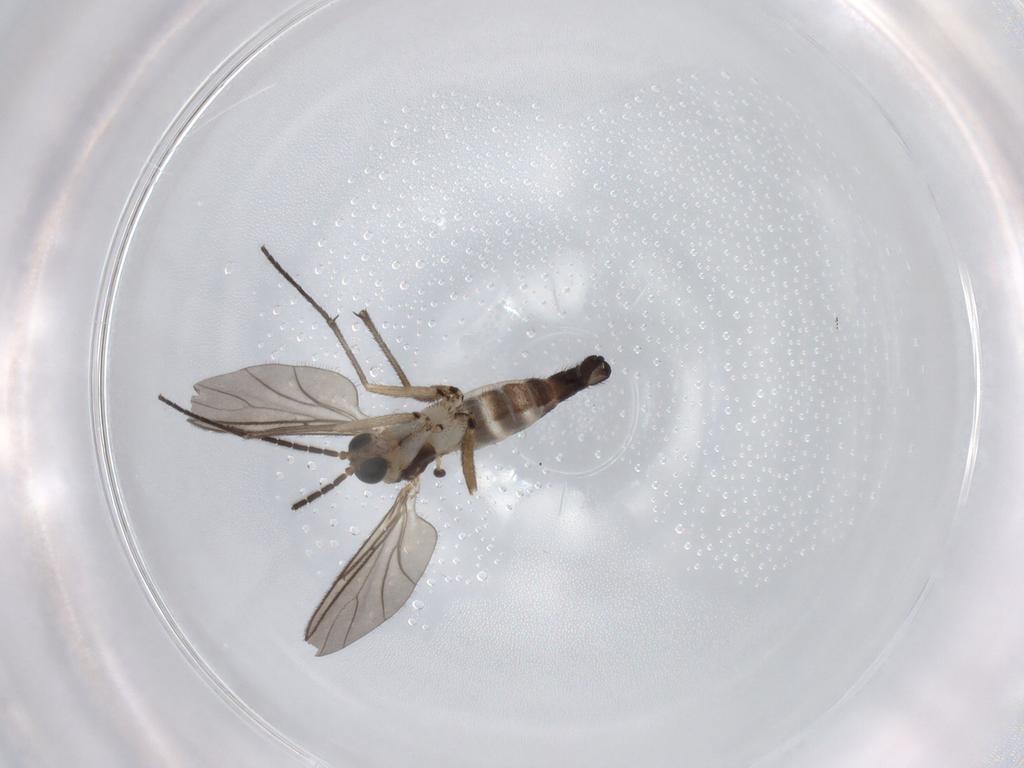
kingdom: Animalia
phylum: Arthropoda
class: Insecta
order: Diptera
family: Sciaridae
